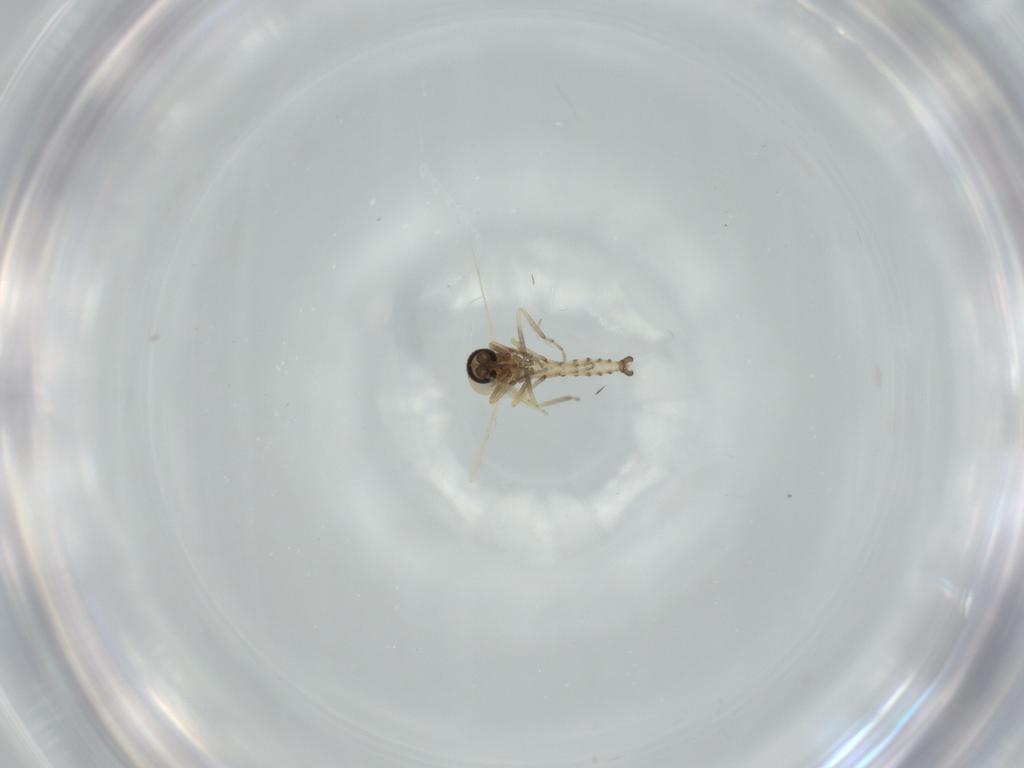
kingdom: Animalia
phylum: Arthropoda
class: Insecta
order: Diptera
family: Ceratopogonidae
